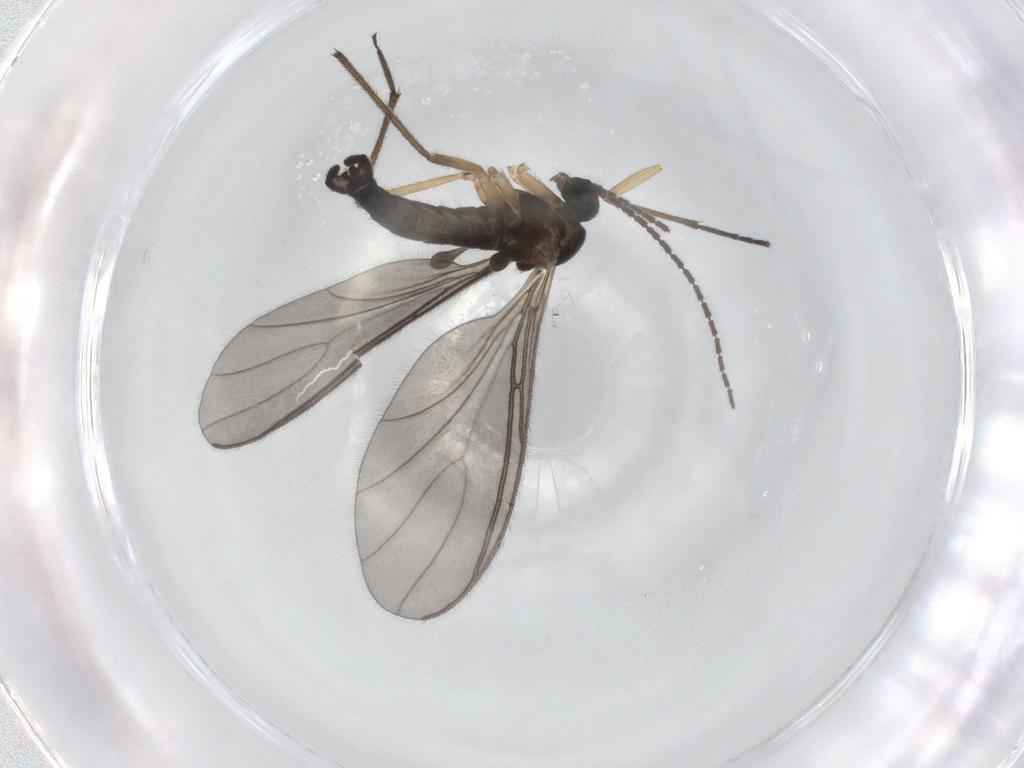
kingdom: Animalia
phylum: Arthropoda
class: Insecta
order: Diptera
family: Sciaridae
